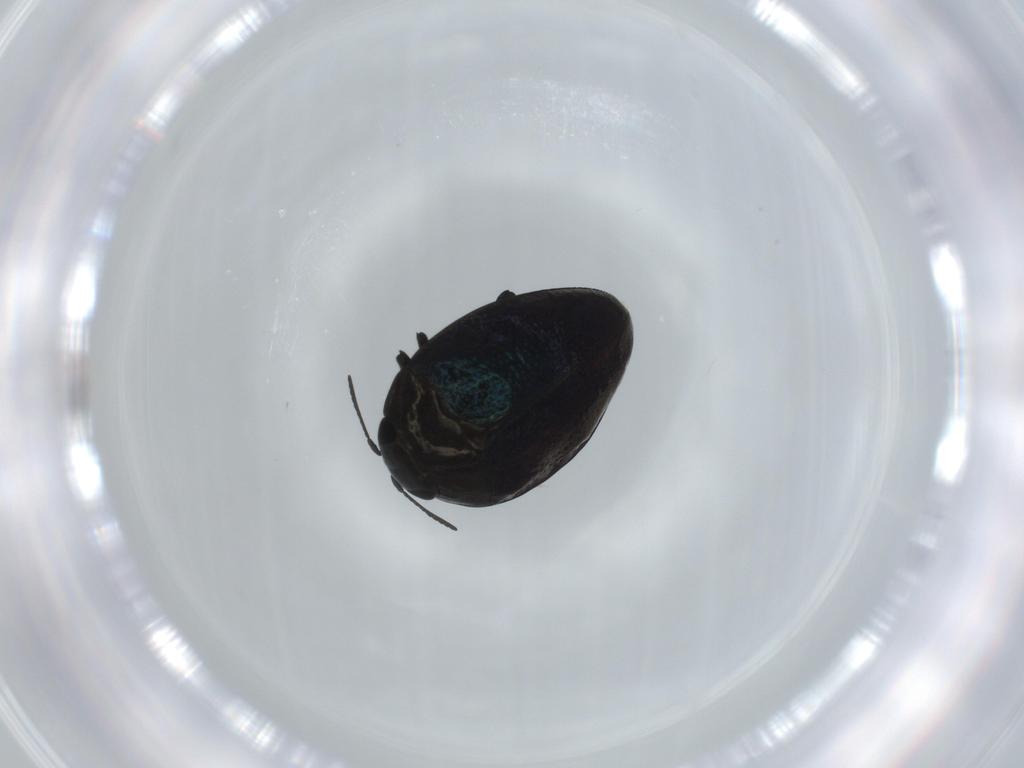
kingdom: Animalia
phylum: Arthropoda
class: Insecta
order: Coleoptera
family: Buprestidae
